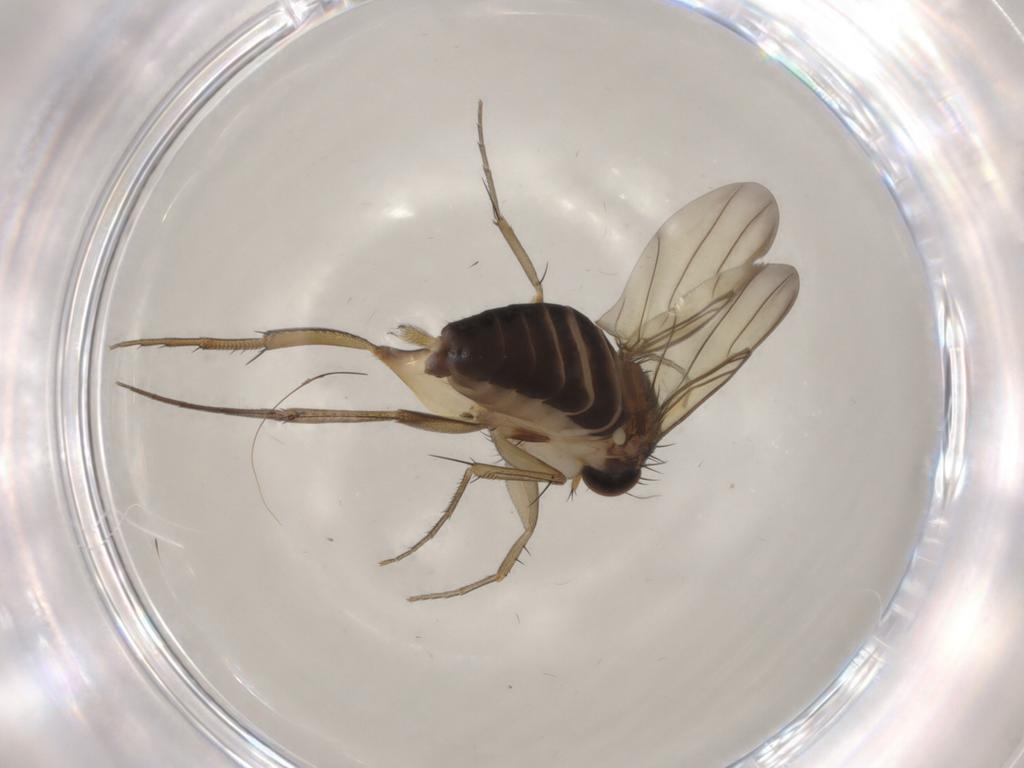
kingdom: Animalia
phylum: Arthropoda
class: Insecta
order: Diptera
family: Phoridae
